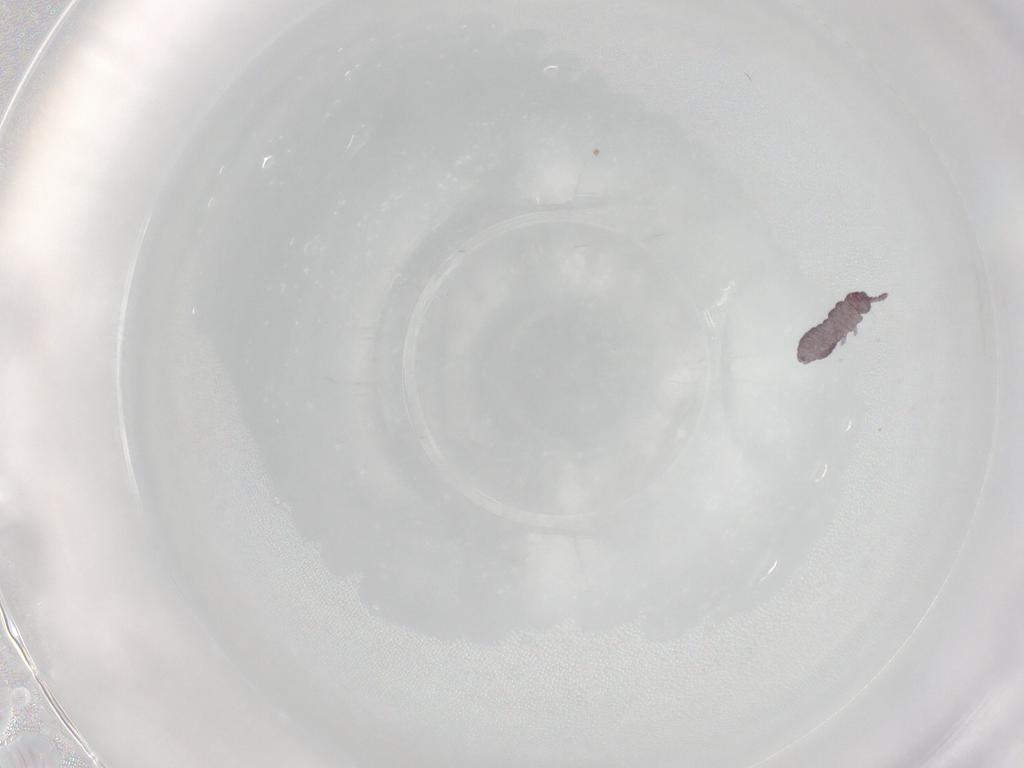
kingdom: Animalia
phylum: Arthropoda
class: Collembola
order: Poduromorpha
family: Hypogastruridae
